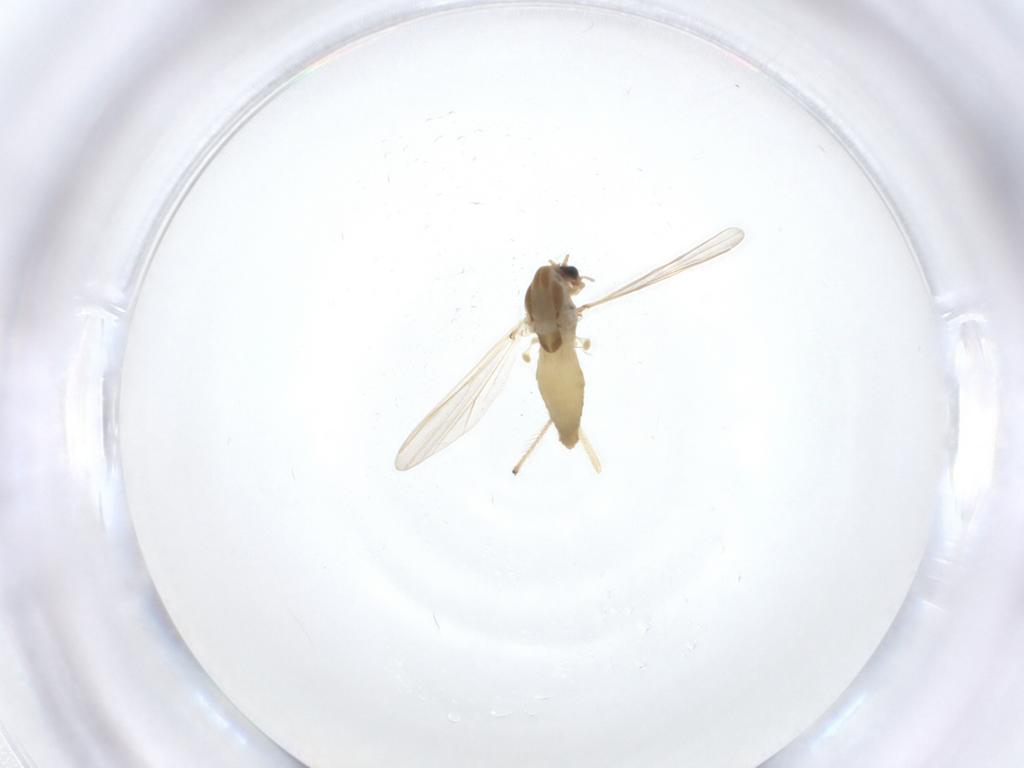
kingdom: Animalia
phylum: Arthropoda
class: Insecta
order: Diptera
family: Chironomidae
